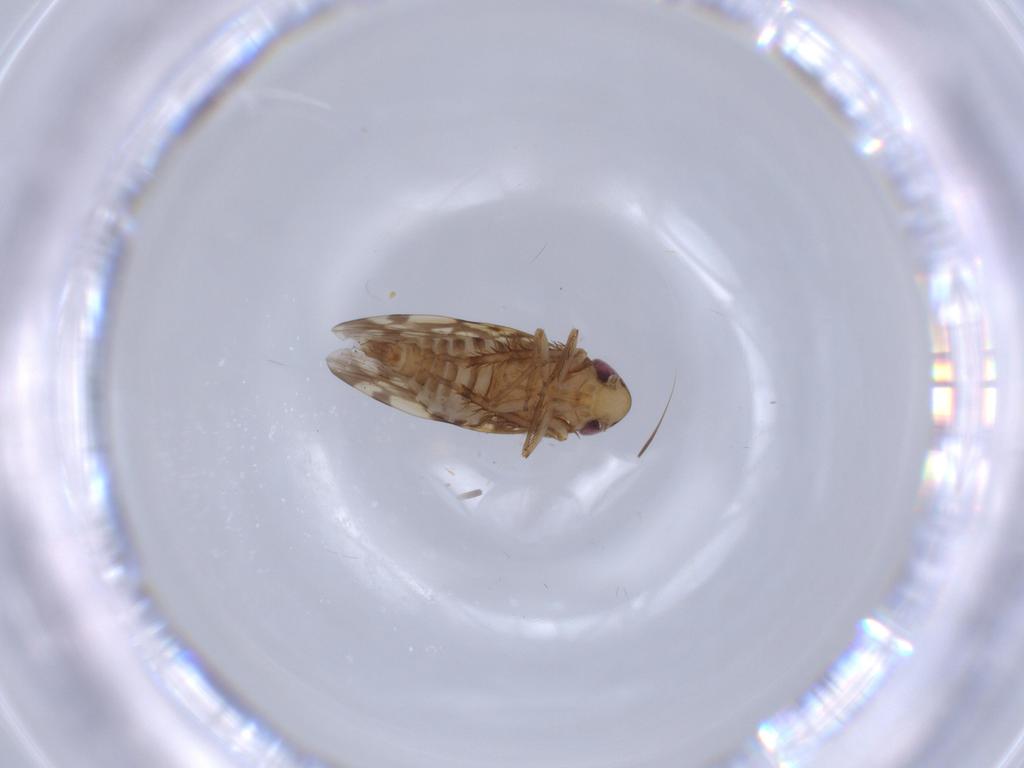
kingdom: Animalia
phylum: Arthropoda
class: Insecta
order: Hemiptera
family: Cicadellidae
